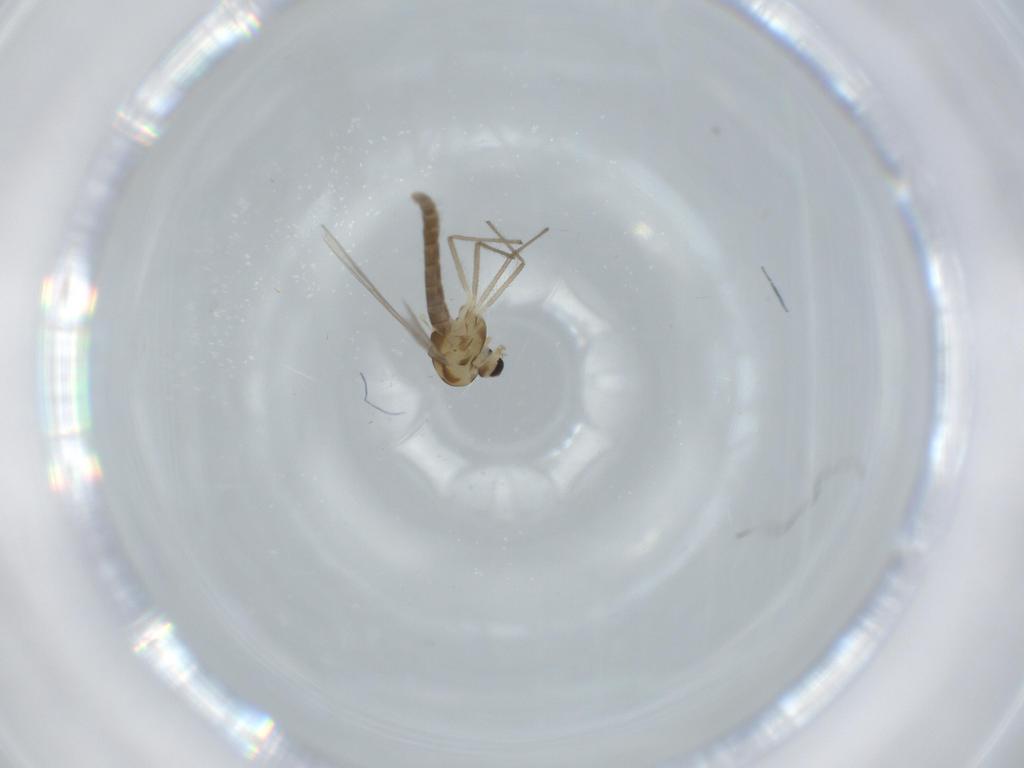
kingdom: Animalia
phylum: Arthropoda
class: Insecta
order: Diptera
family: Chironomidae
